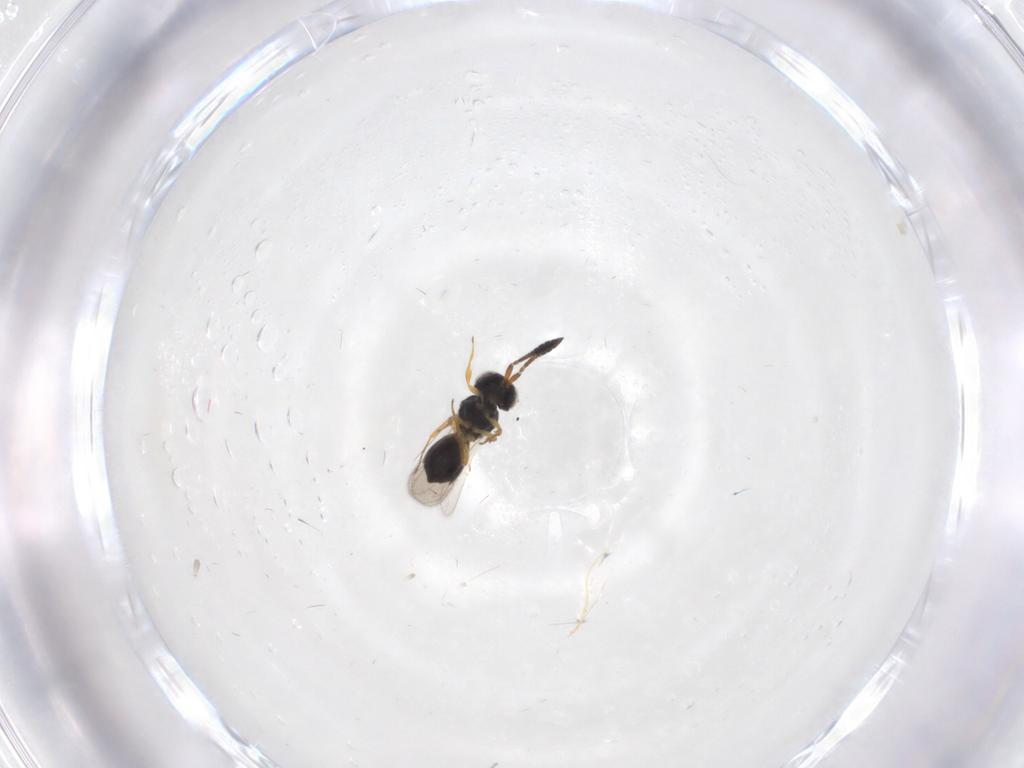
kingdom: Animalia
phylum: Arthropoda
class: Insecta
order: Hymenoptera
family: Scelionidae
